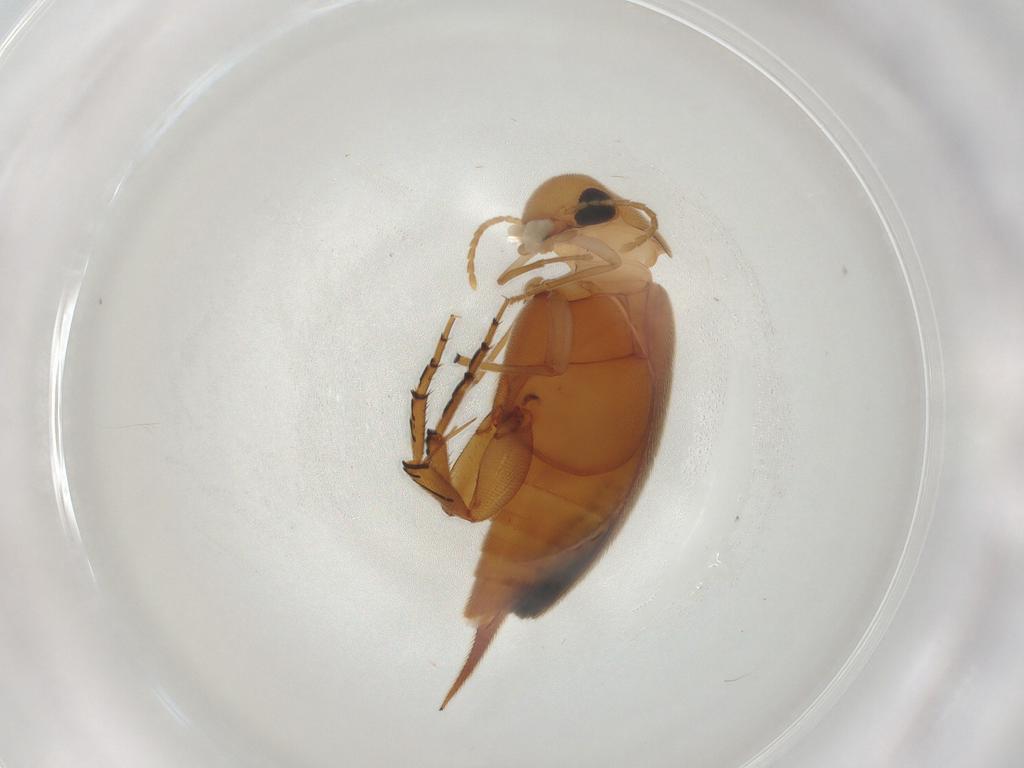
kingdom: Animalia
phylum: Arthropoda
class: Insecta
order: Coleoptera
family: Mordellidae
